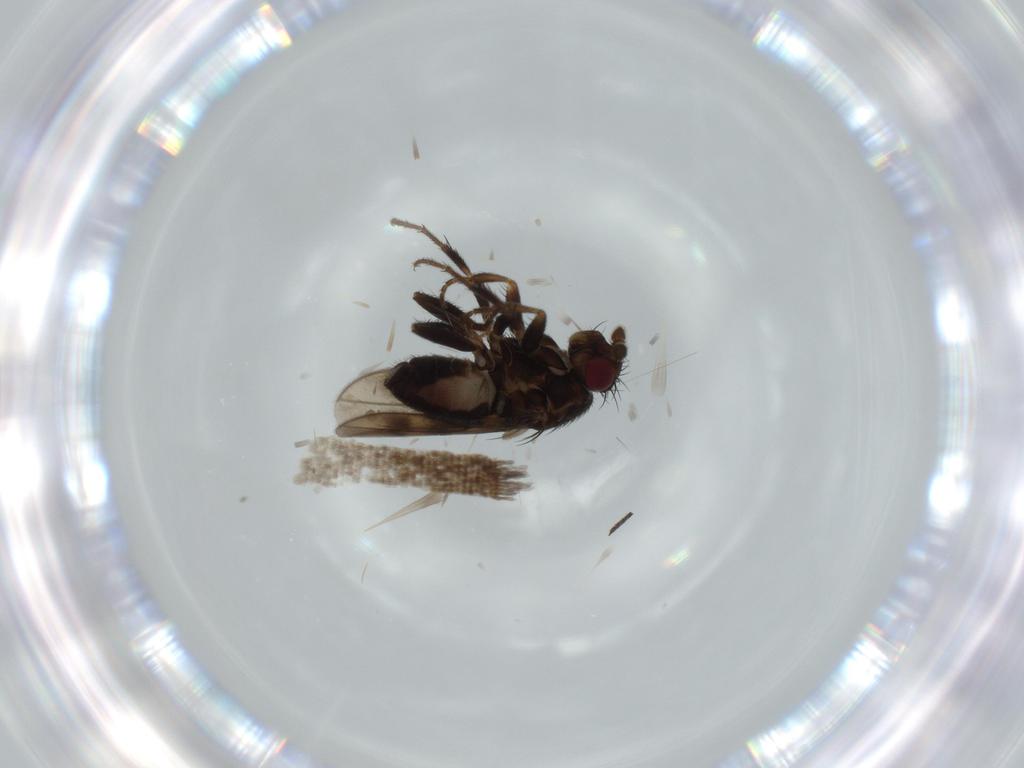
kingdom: Animalia
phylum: Arthropoda
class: Insecta
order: Diptera
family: Sphaeroceridae
